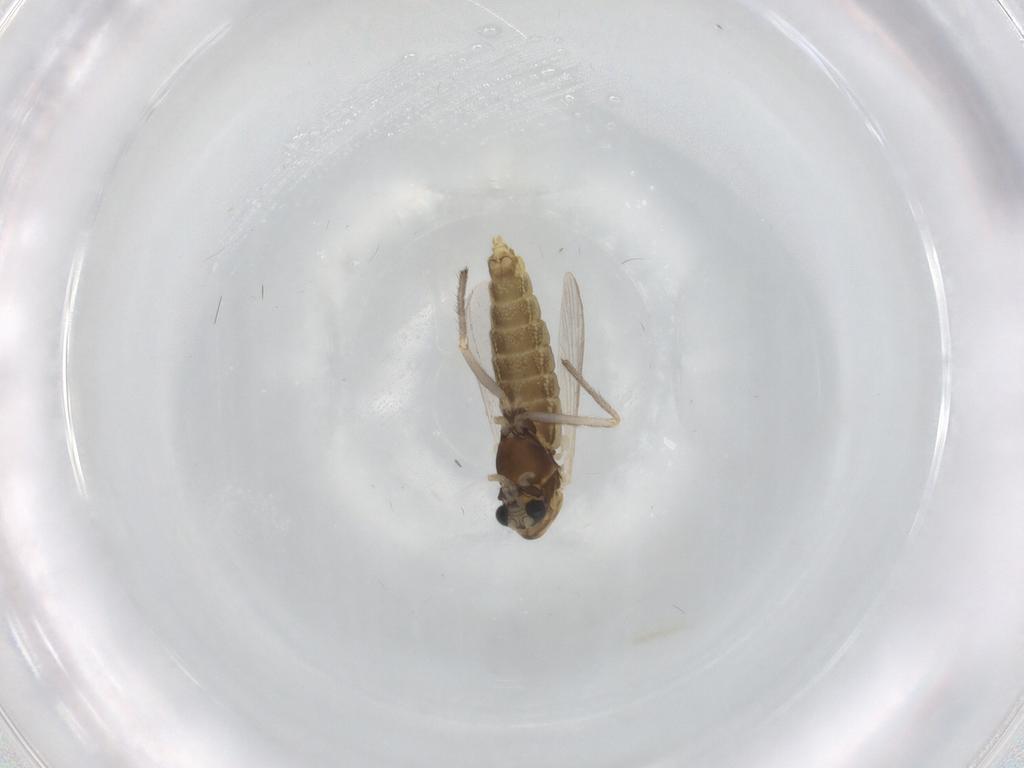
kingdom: Animalia
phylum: Arthropoda
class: Insecta
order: Diptera
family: Chironomidae
